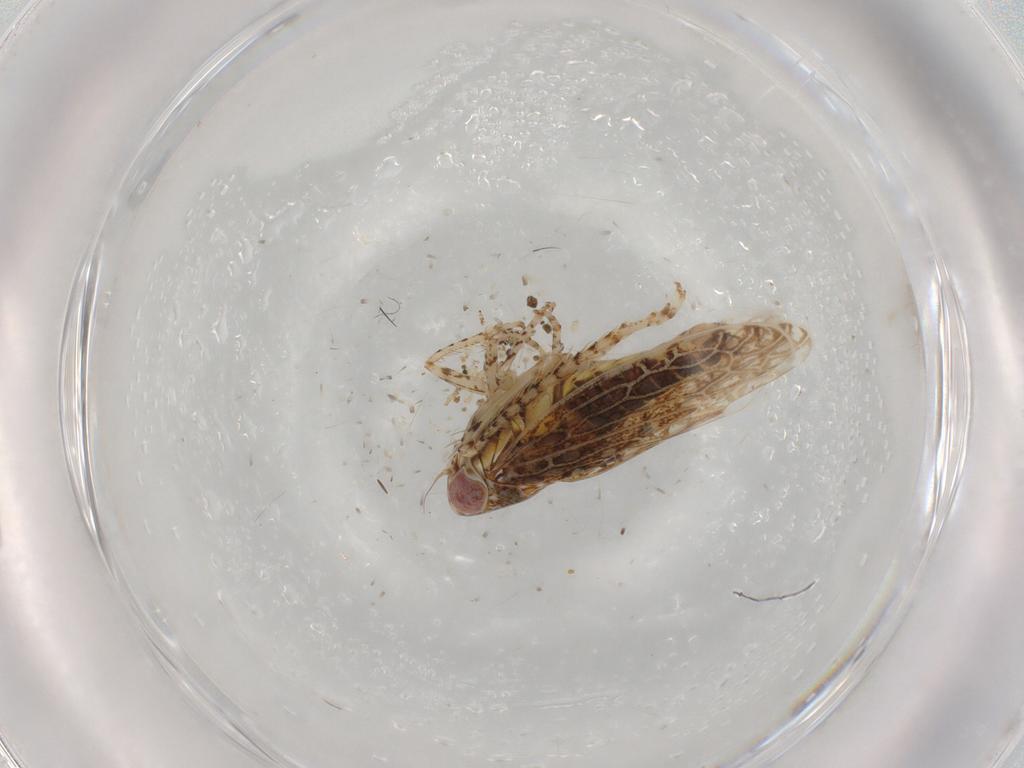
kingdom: Animalia
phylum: Arthropoda
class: Insecta
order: Hemiptera
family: Cicadellidae
